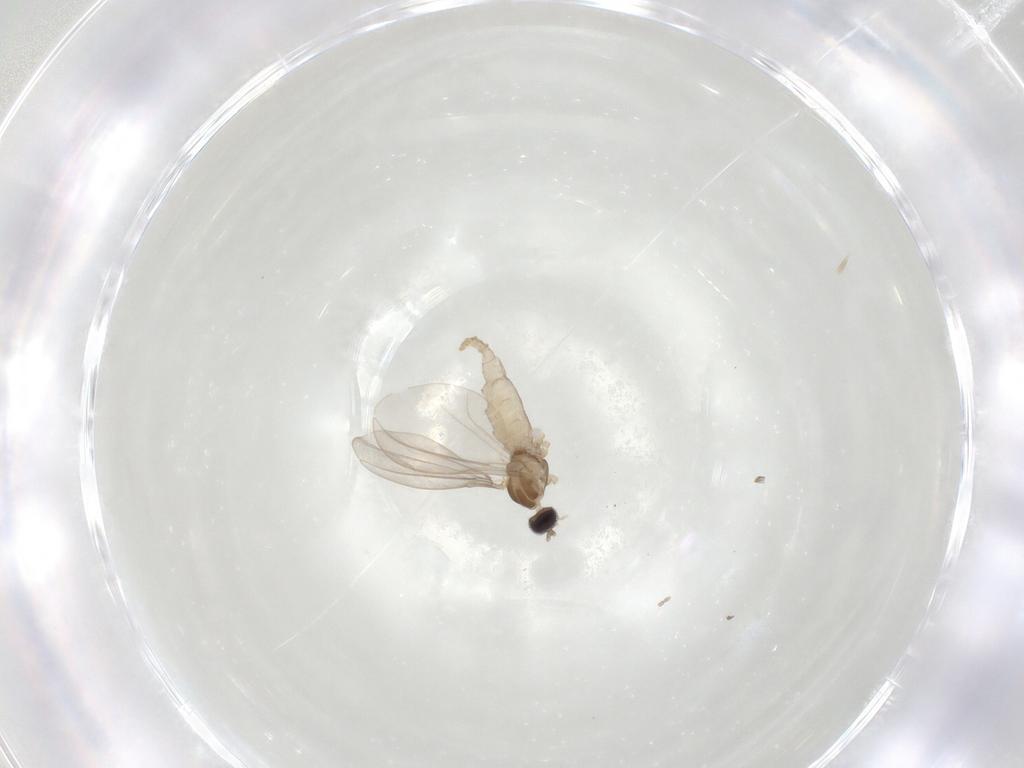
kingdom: Animalia
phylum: Arthropoda
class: Insecta
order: Diptera
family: Cecidomyiidae
